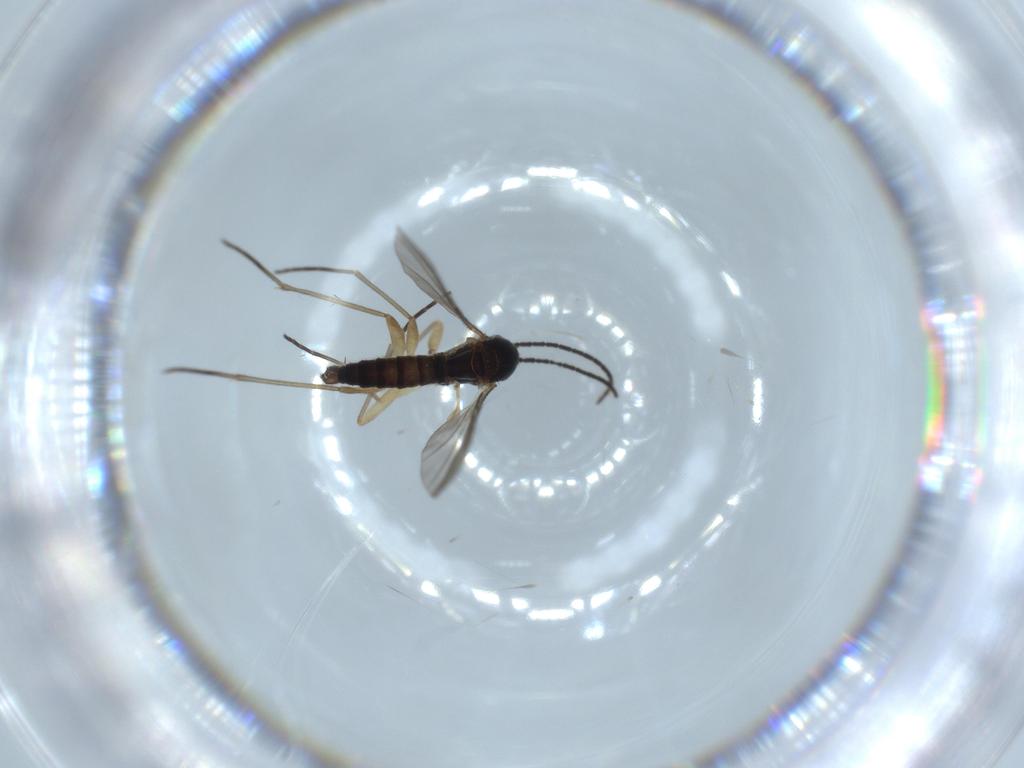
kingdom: Animalia
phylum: Arthropoda
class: Insecta
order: Diptera
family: Sciaridae
